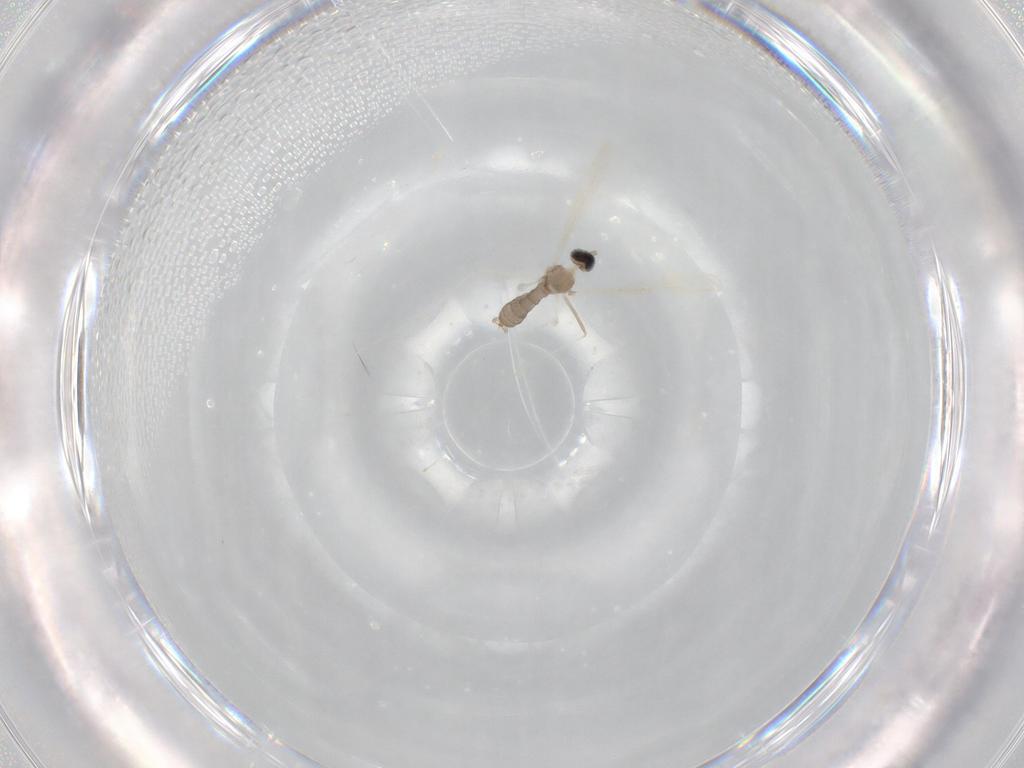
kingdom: Animalia
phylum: Arthropoda
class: Insecta
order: Diptera
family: Cecidomyiidae
